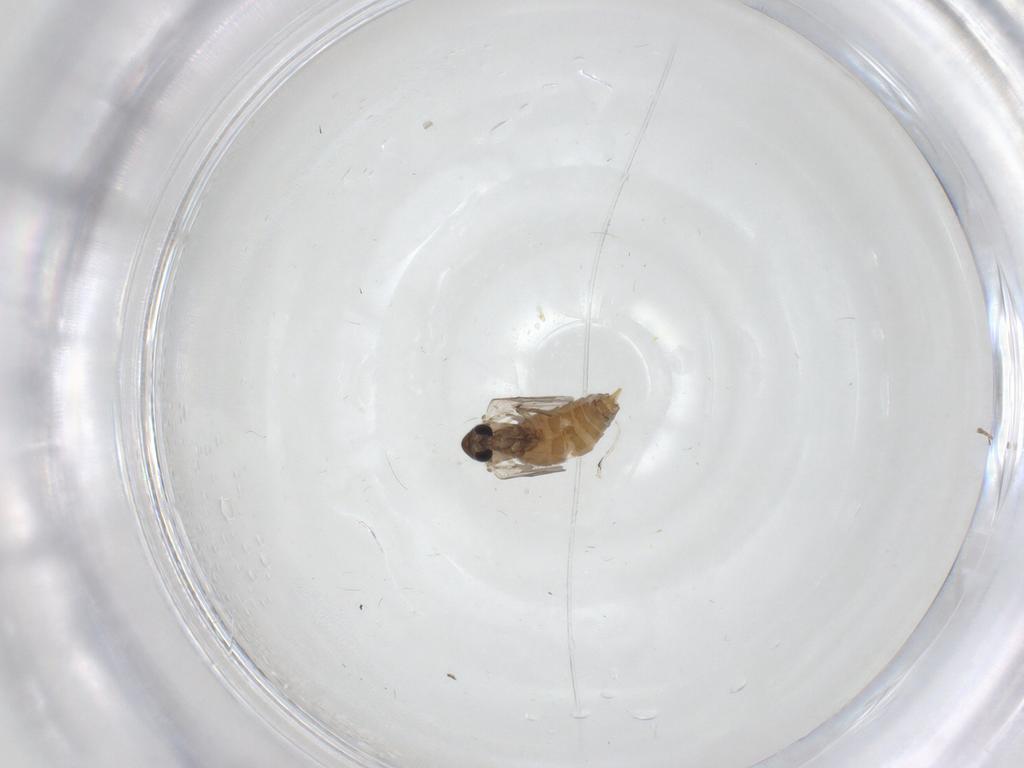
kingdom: Animalia
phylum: Arthropoda
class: Insecta
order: Diptera
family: Psychodidae
